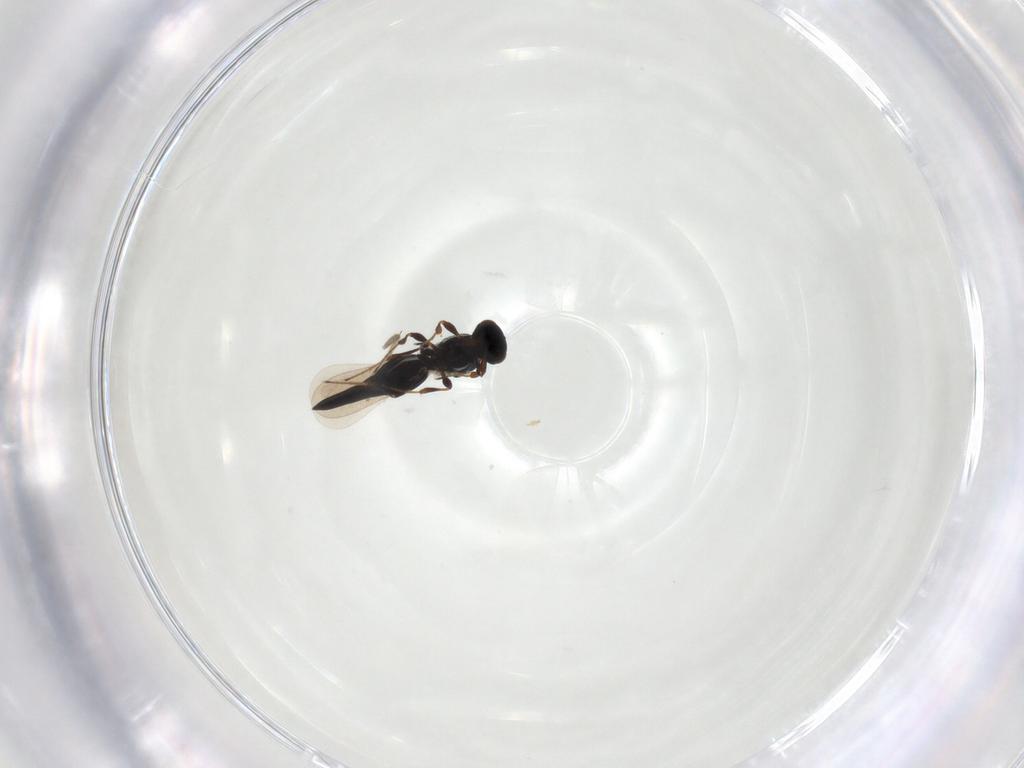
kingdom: Animalia
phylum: Arthropoda
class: Insecta
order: Hymenoptera
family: Platygastridae
